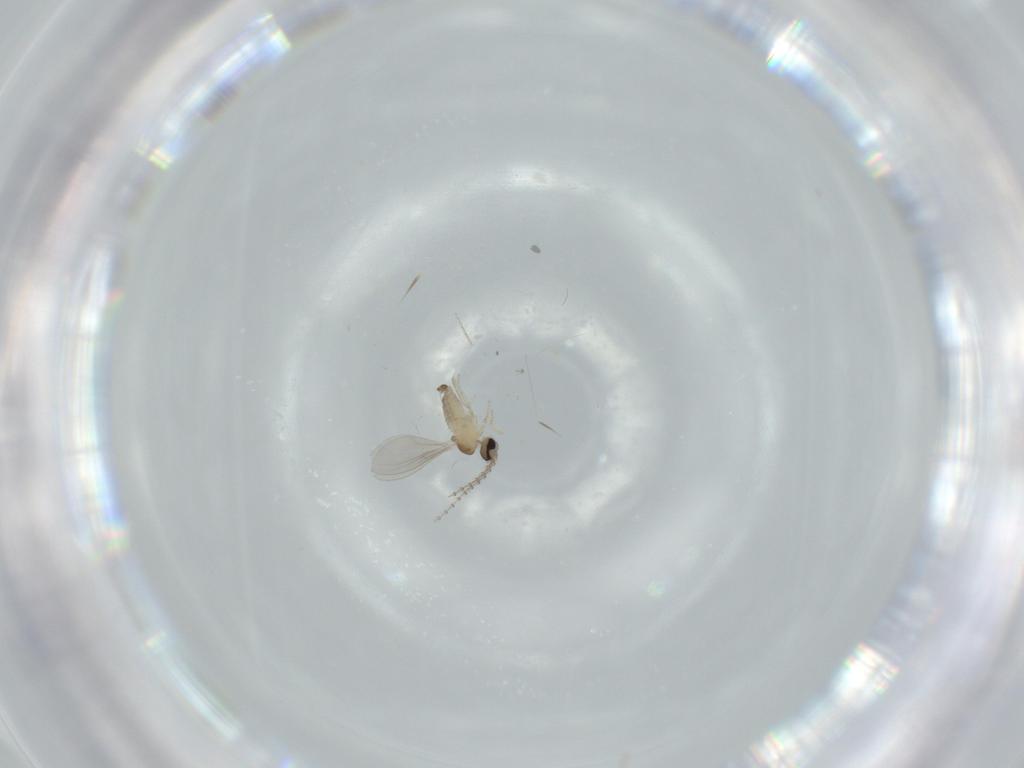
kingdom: Animalia
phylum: Arthropoda
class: Insecta
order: Diptera
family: Cecidomyiidae
